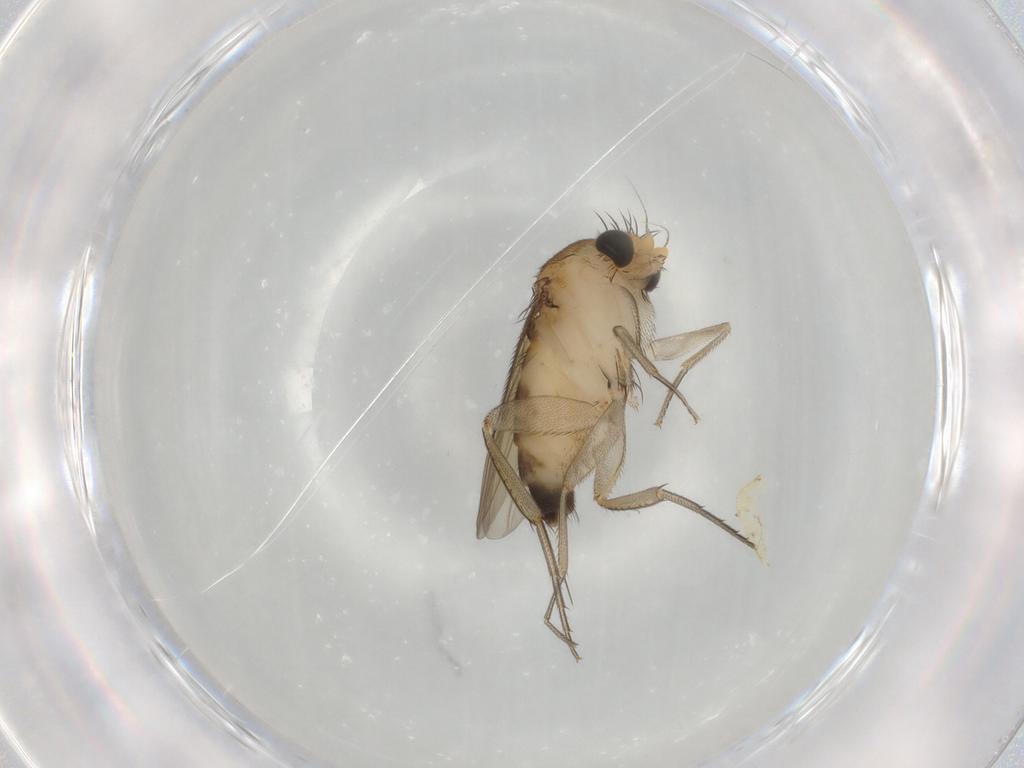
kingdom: Animalia
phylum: Arthropoda
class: Insecta
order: Diptera
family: Phoridae
